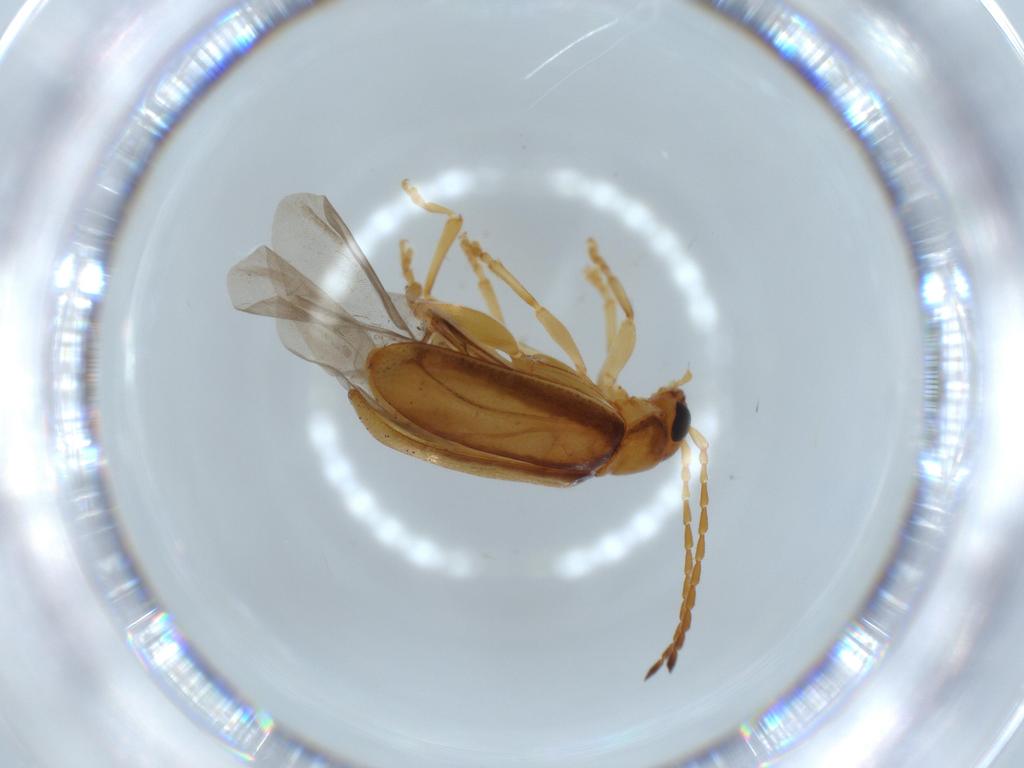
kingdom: Animalia
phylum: Arthropoda
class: Insecta
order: Coleoptera
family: Chrysomelidae
